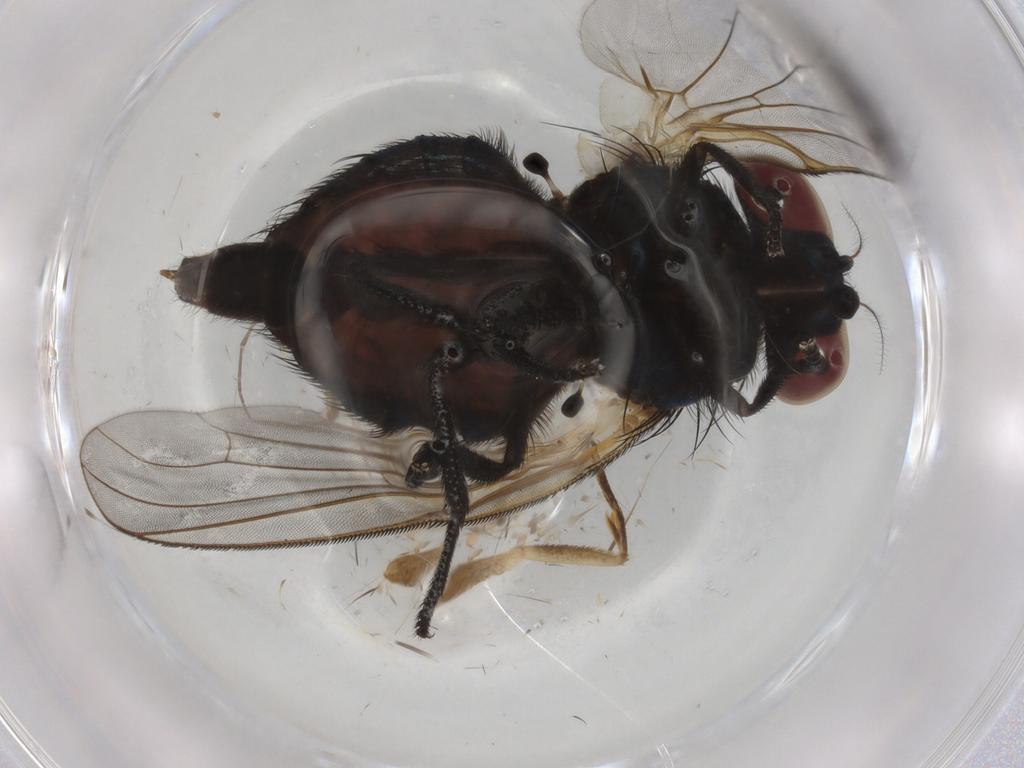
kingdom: Animalia
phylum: Arthropoda
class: Insecta
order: Diptera
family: Lonchaeidae
